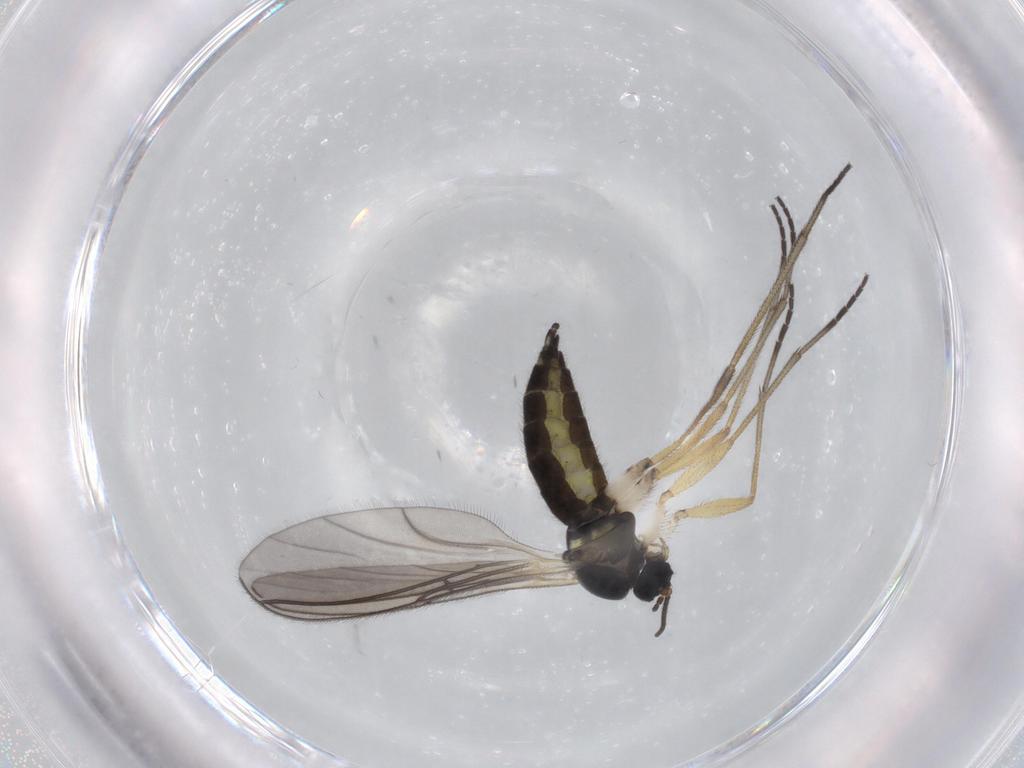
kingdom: Animalia
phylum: Arthropoda
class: Insecta
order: Diptera
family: Sciaridae
